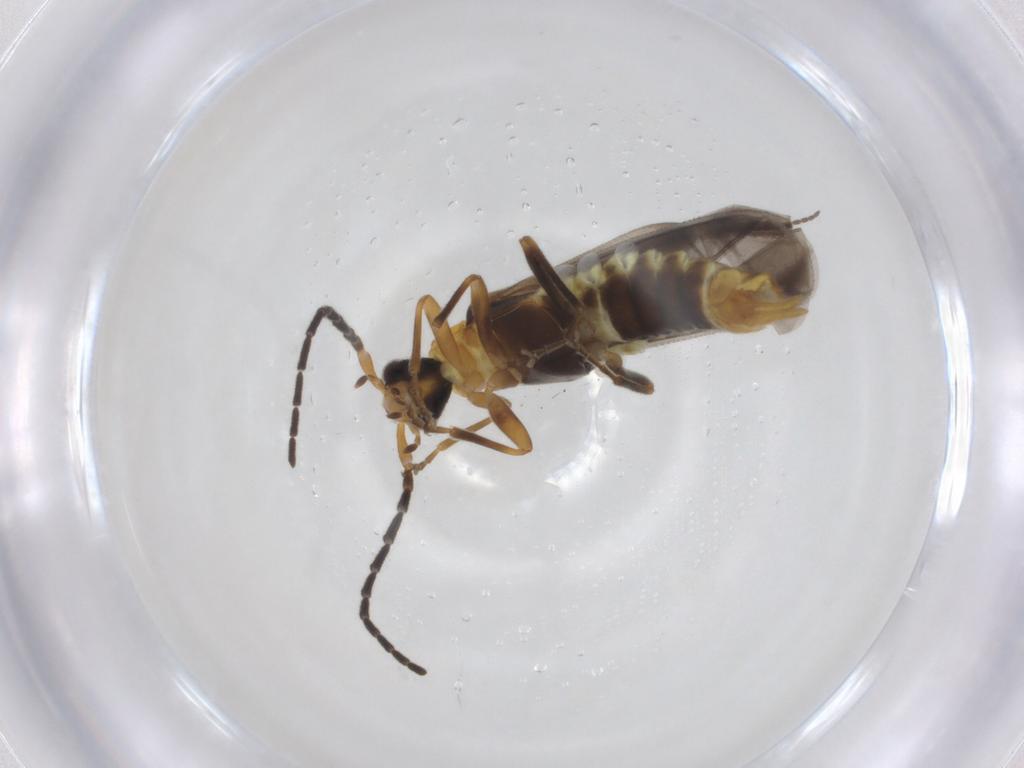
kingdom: Animalia
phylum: Arthropoda
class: Insecta
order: Coleoptera
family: Cantharidae
